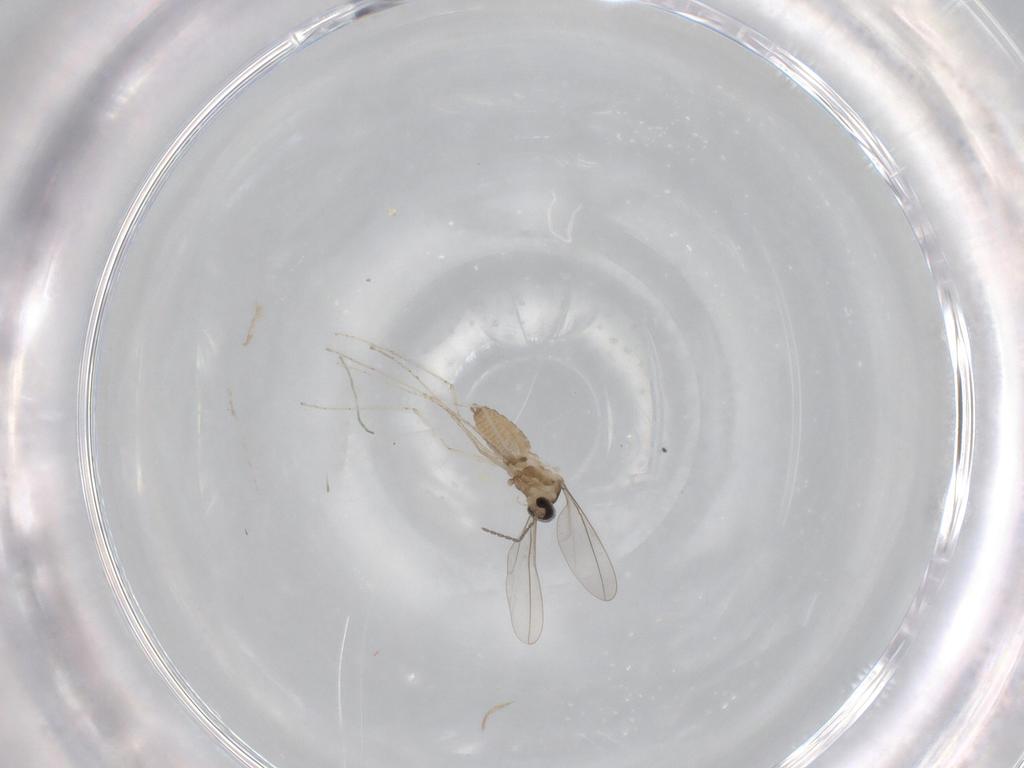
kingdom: Animalia
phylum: Arthropoda
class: Insecta
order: Diptera
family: Cecidomyiidae
